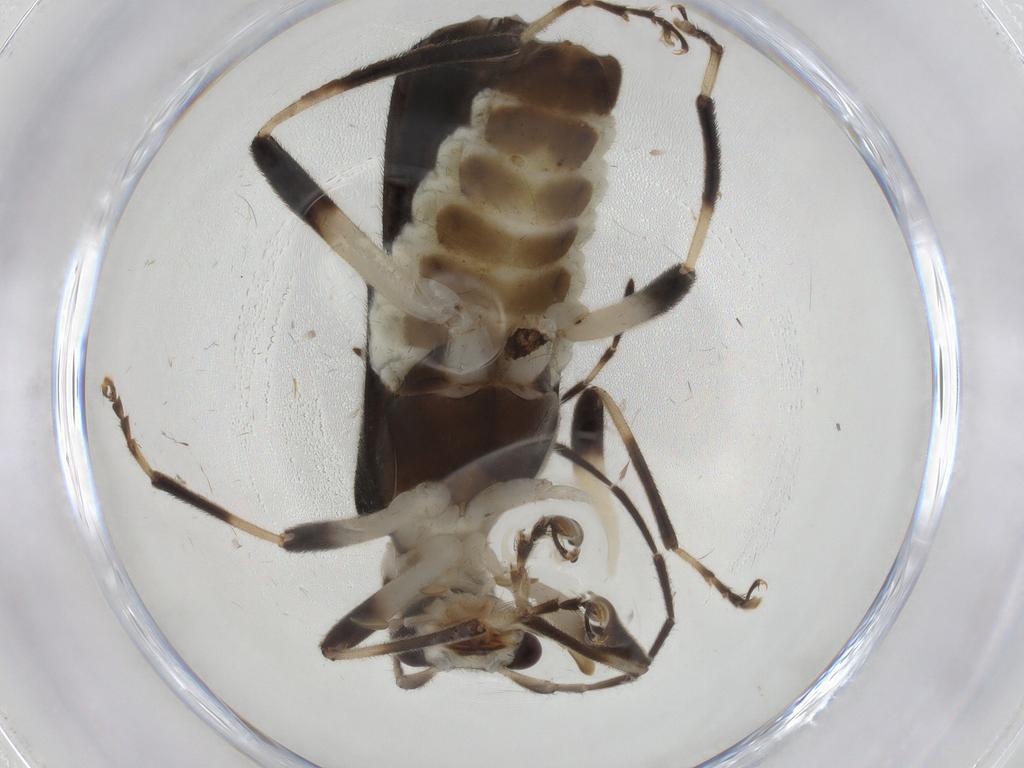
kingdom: Animalia
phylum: Arthropoda
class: Insecta
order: Coleoptera
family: Cantharidae
